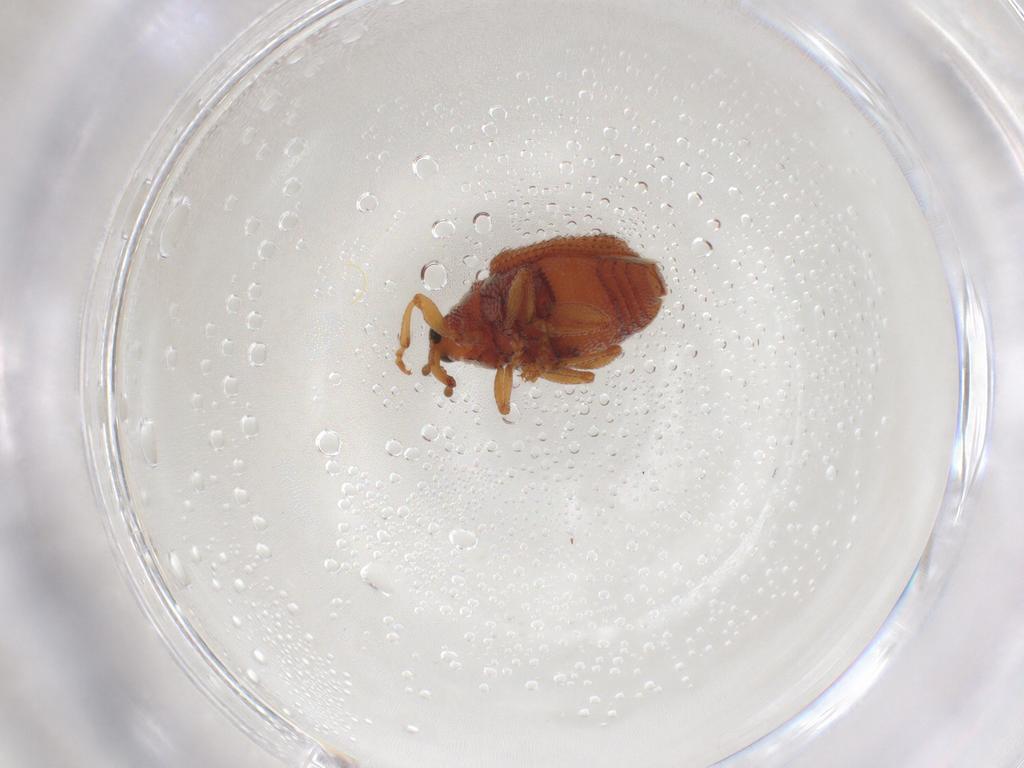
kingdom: Animalia
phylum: Arthropoda
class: Insecta
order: Coleoptera
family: Curculionidae
